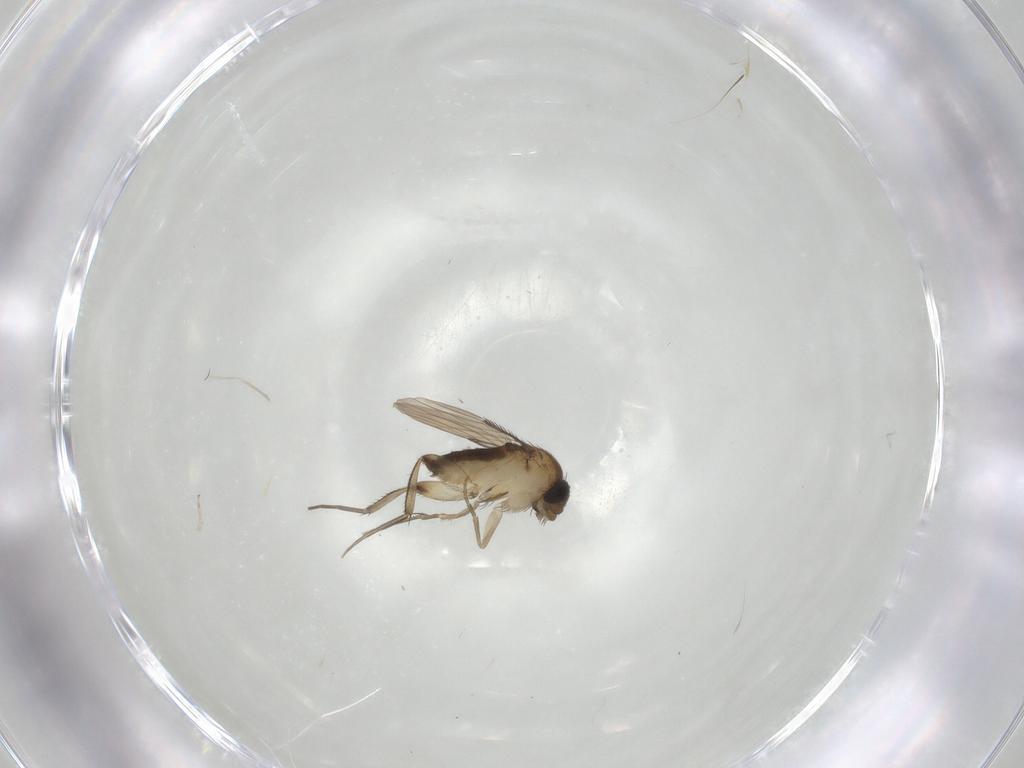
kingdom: Animalia
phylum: Arthropoda
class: Insecta
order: Diptera
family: Phoridae
